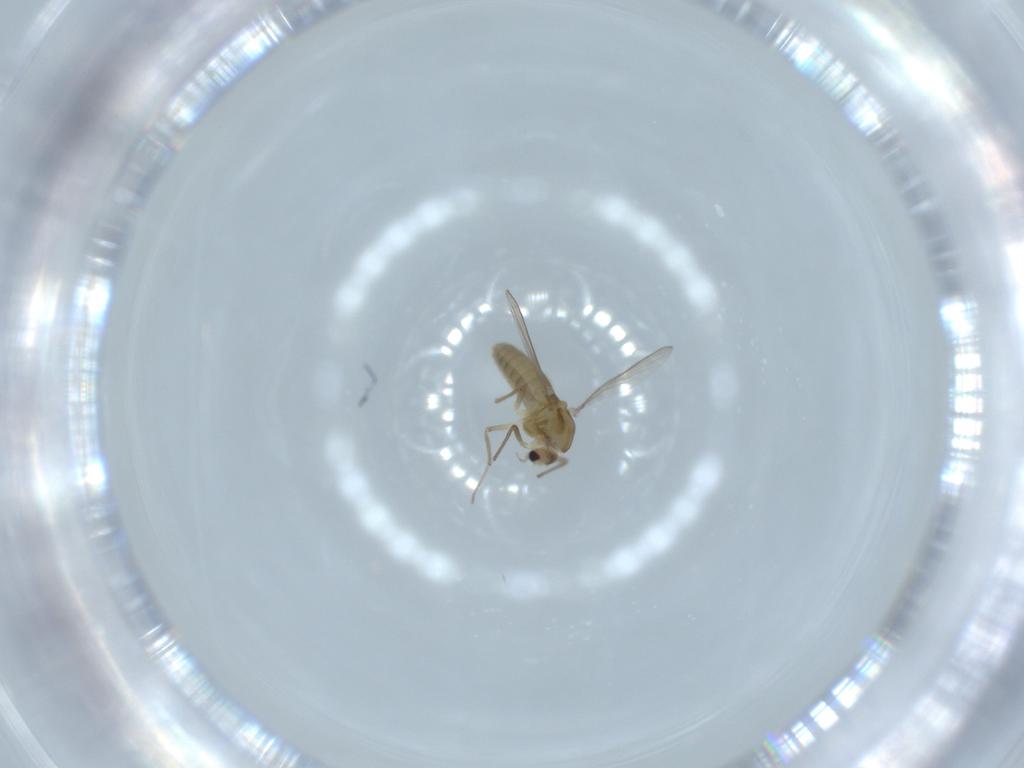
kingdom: Animalia
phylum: Arthropoda
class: Insecta
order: Diptera
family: Chironomidae
